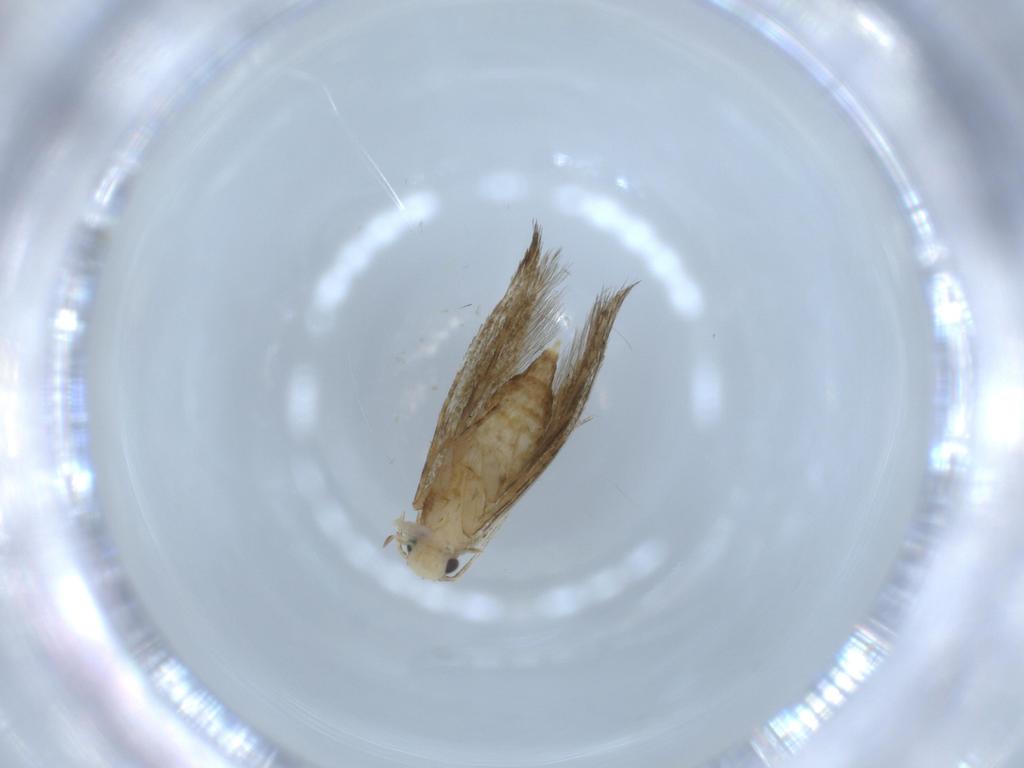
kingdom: Animalia
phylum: Arthropoda
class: Insecta
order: Lepidoptera
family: Tineidae
